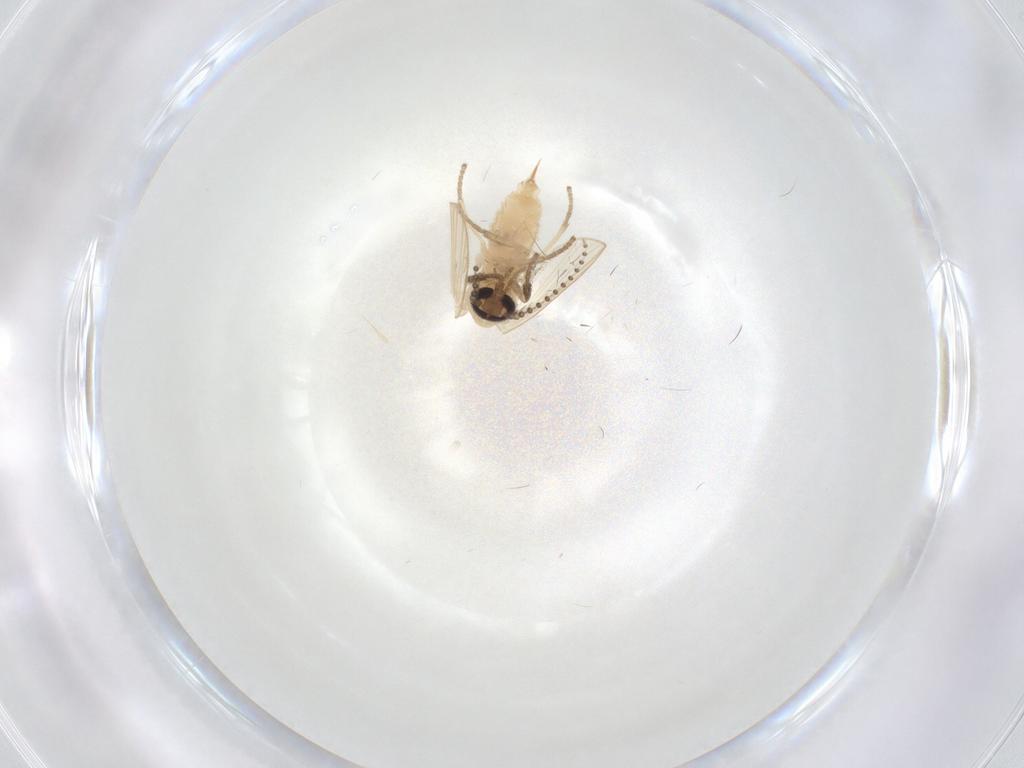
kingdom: Animalia
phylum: Arthropoda
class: Insecta
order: Diptera
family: Psychodidae
